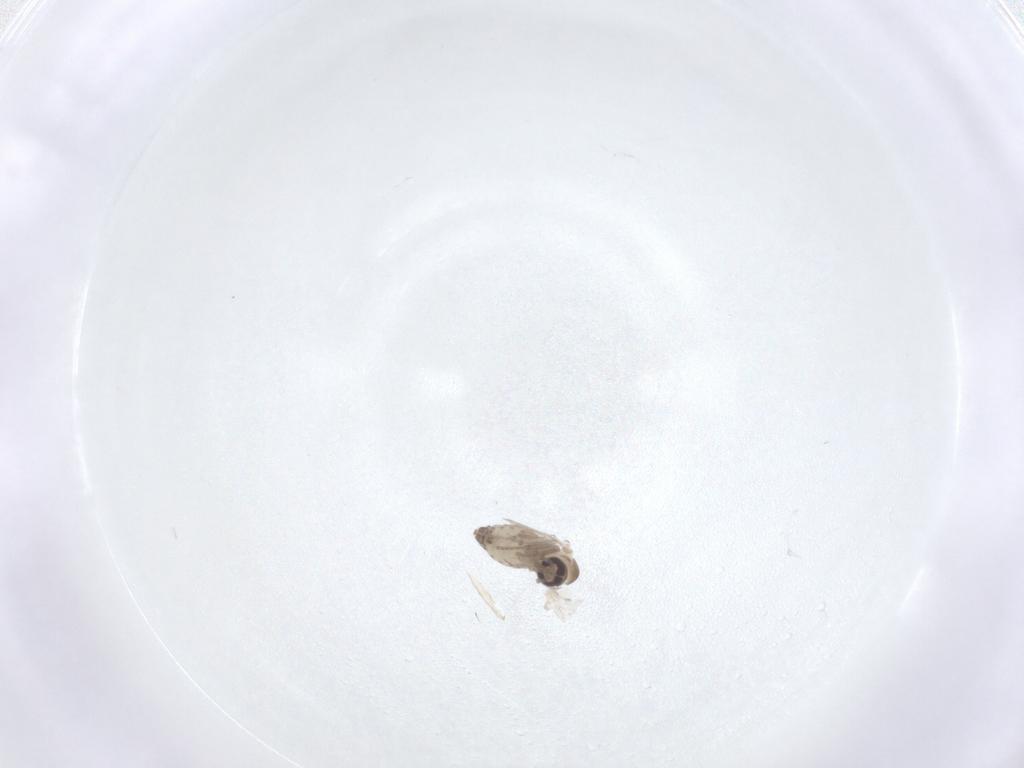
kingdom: Animalia
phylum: Arthropoda
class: Insecta
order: Diptera
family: Psychodidae
